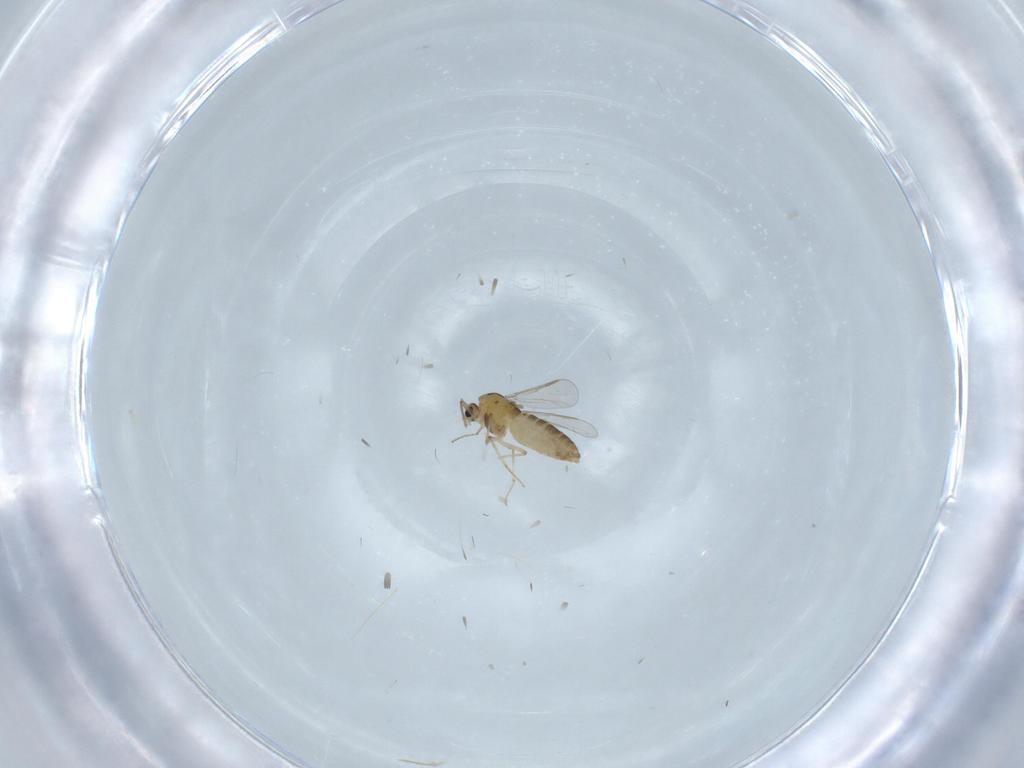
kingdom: Animalia
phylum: Arthropoda
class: Insecta
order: Diptera
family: Chironomidae
